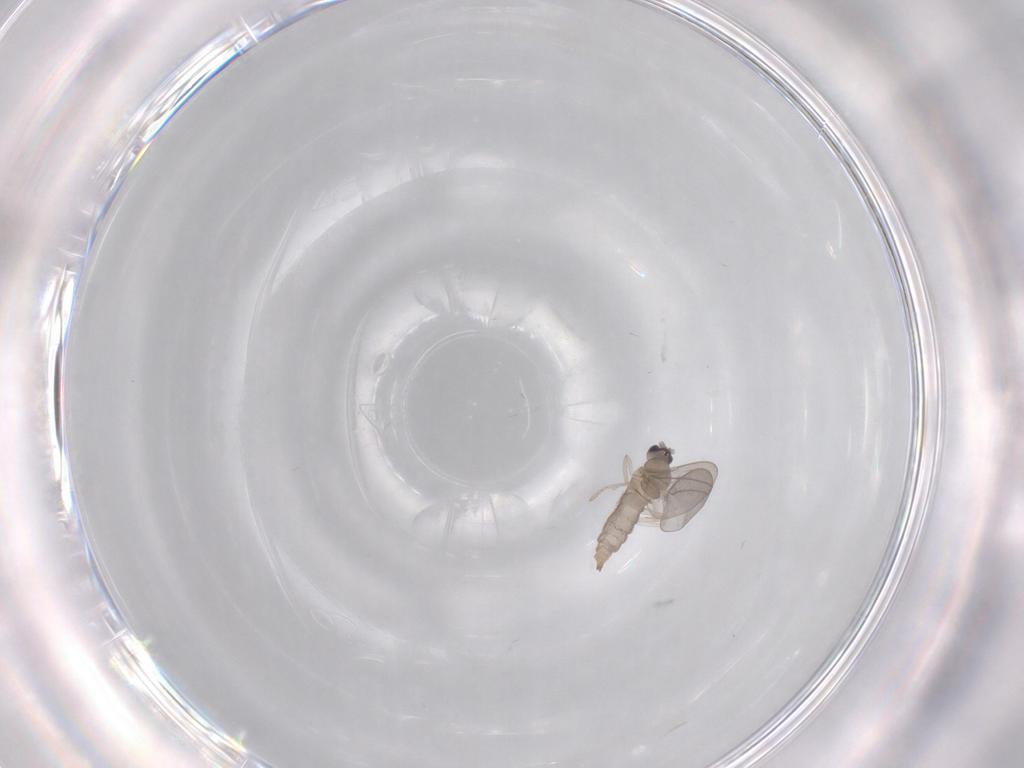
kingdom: Animalia
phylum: Arthropoda
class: Insecta
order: Diptera
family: Cecidomyiidae
